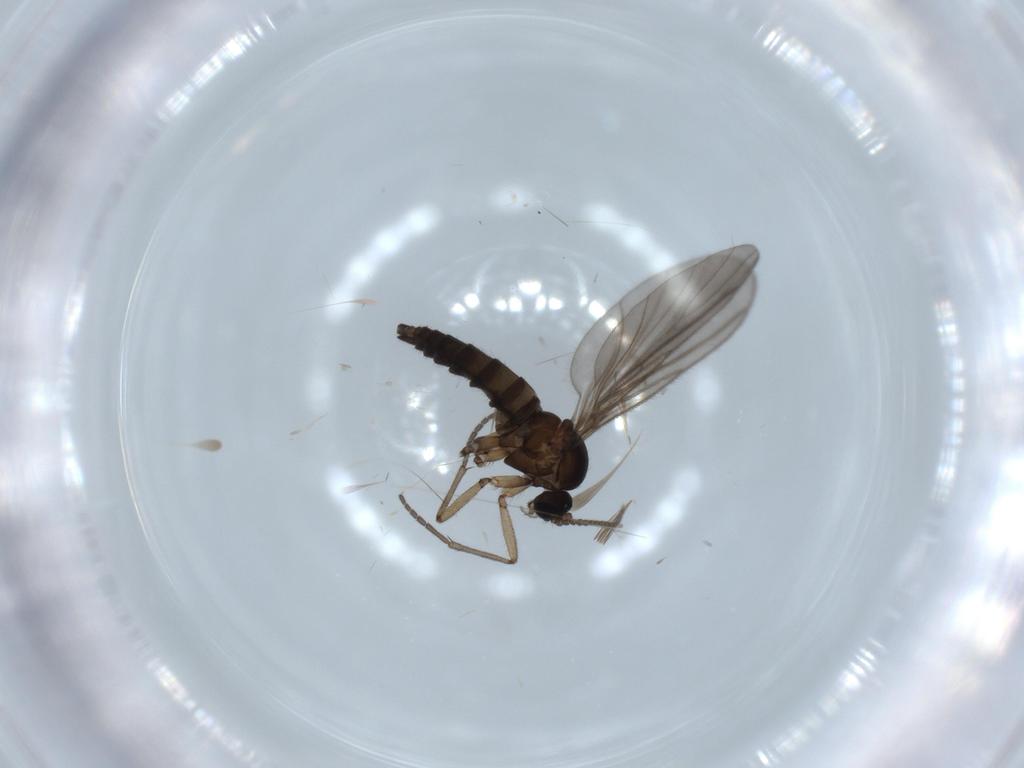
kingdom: Animalia
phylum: Arthropoda
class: Insecta
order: Diptera
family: Sciaridae
